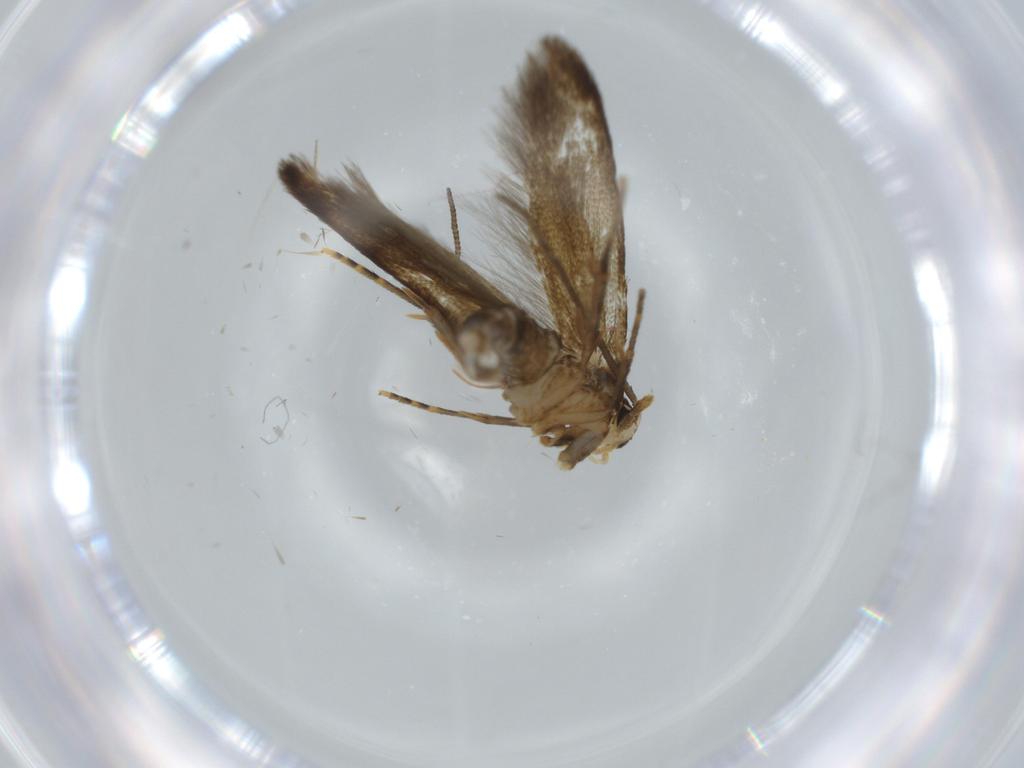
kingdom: Animalia
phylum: Arthropoda
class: Insecta
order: Lepidoptera
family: Tineidae
